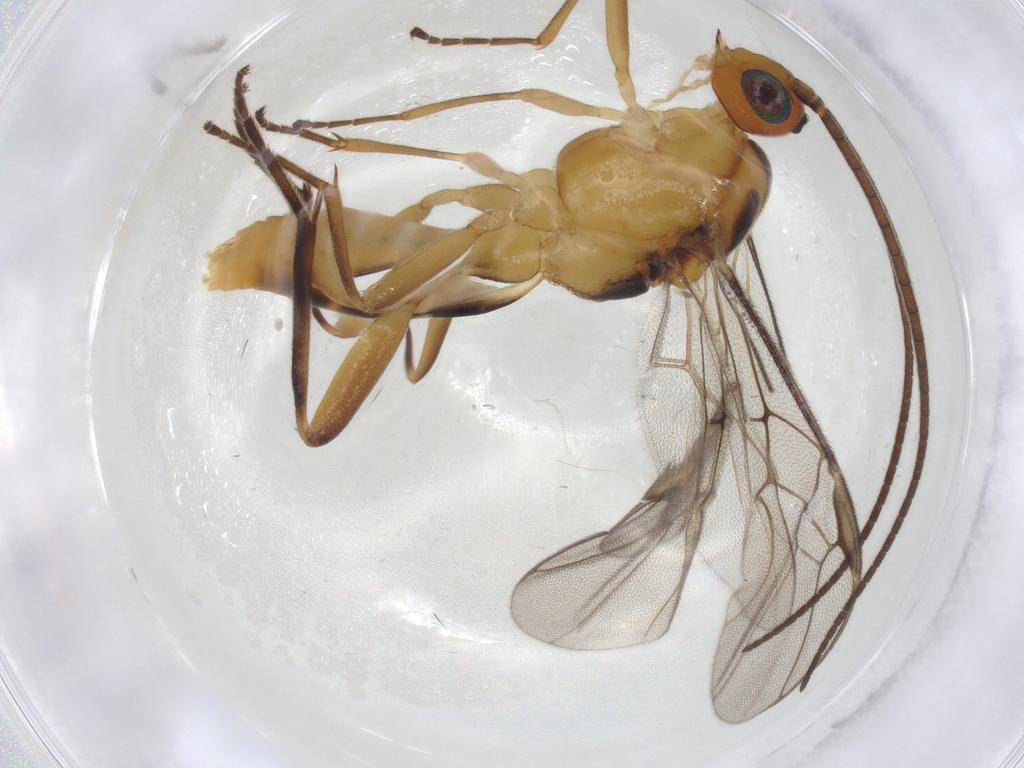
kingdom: Animalia
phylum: Arthropoda
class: Insecta
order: Hymenoptera
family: Braconidae
